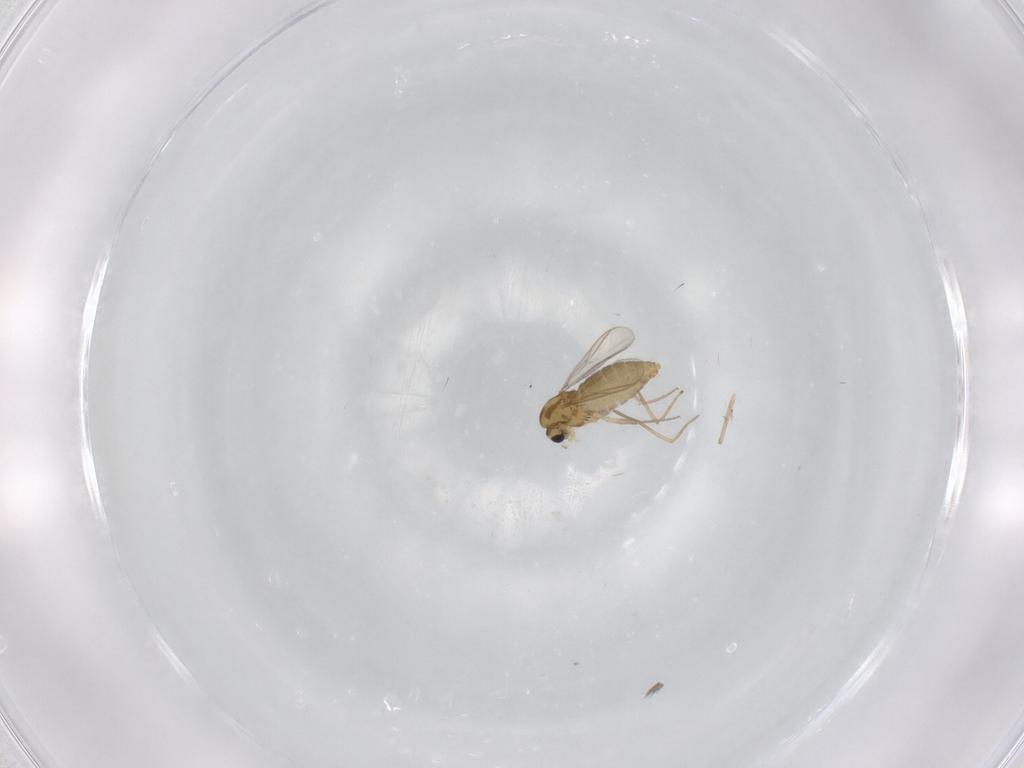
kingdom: Animalia
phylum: Arthropoda
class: Insecta
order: Diptera
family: Chironomidae
